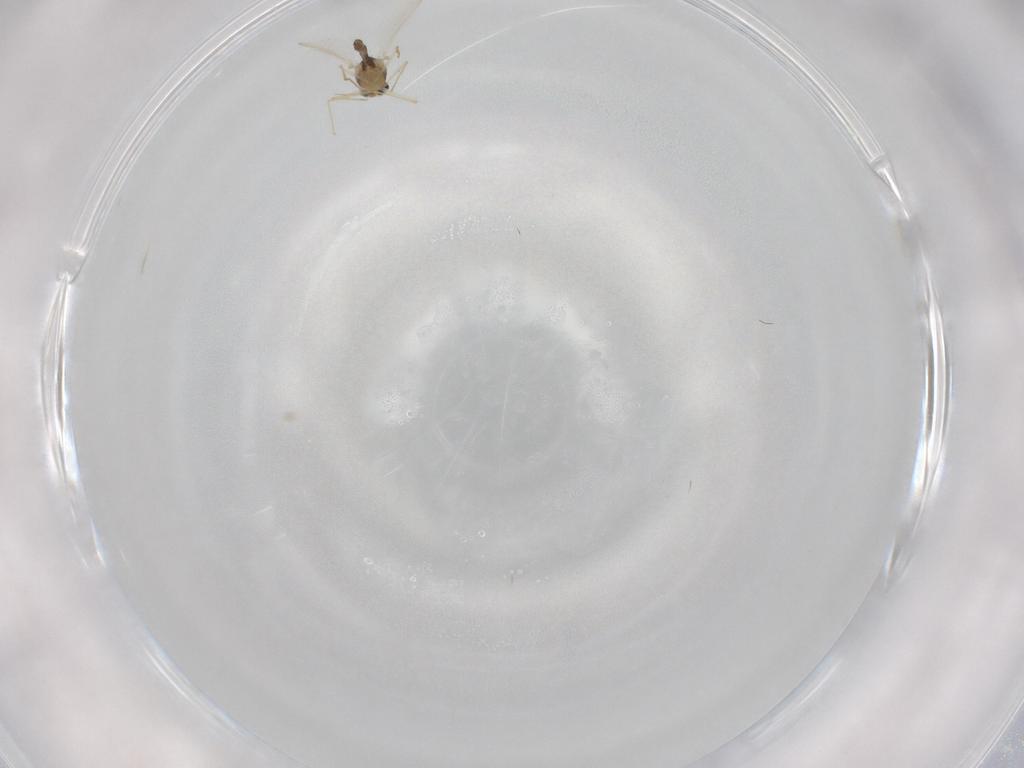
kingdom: Animalia
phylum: Arthropoda
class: Insecta
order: Diptera
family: Chironomidae
